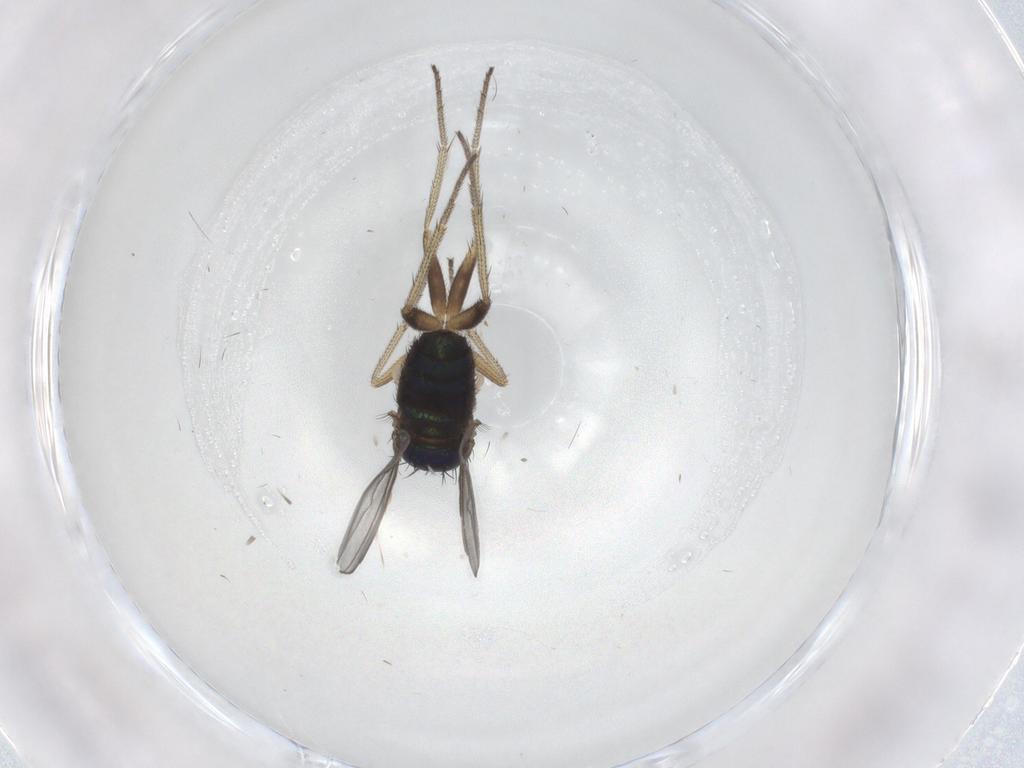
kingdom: Animalia
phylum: Arthropoda
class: Insecta
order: Diptera
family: Dolichopodidae
